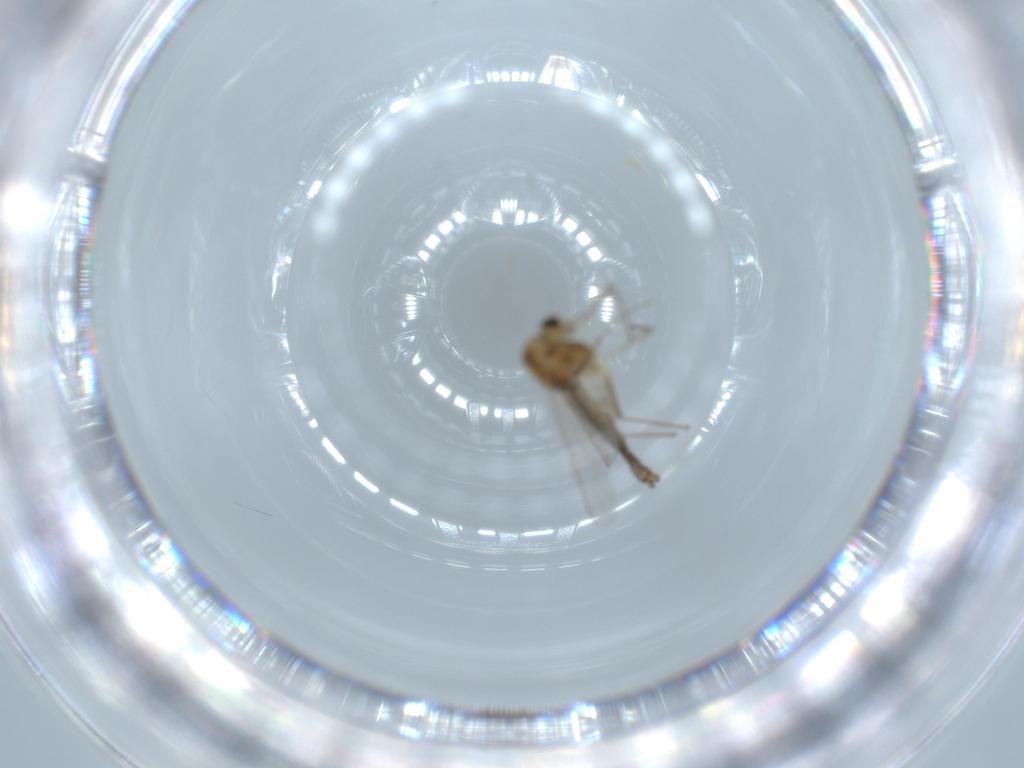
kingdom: Animalia
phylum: Arthropoda
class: Insecta
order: Diptera
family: Chironomidae
